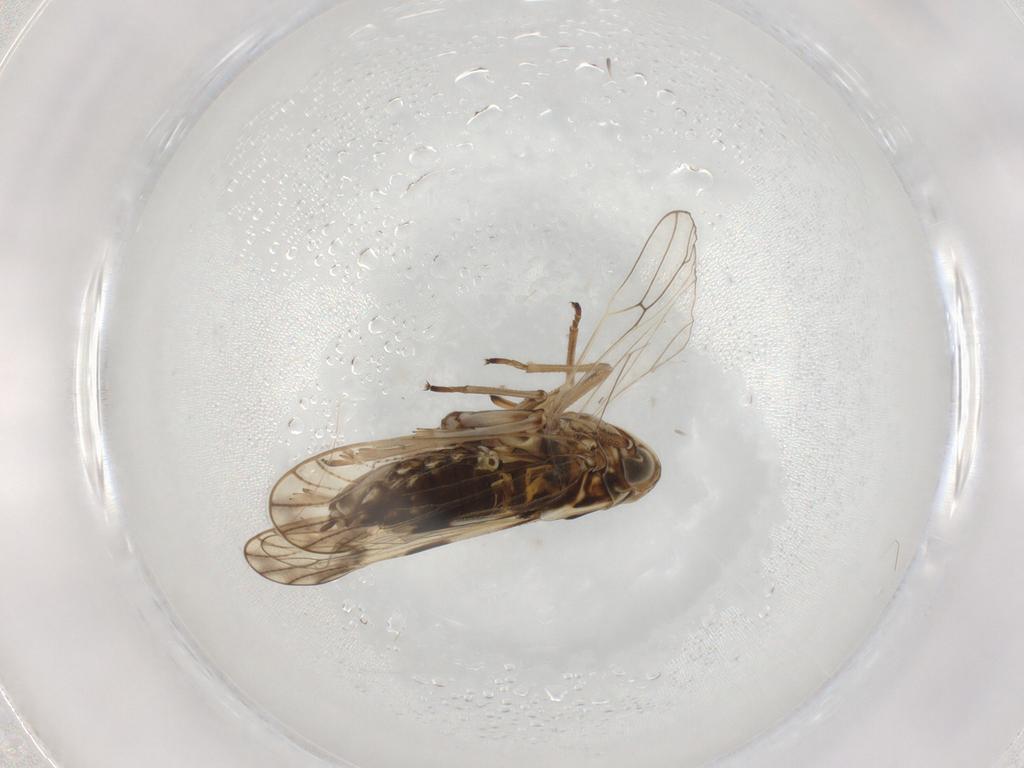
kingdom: Animalia
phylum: Arthropoda
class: Insecta
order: Hemiptera
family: Delphacidae
